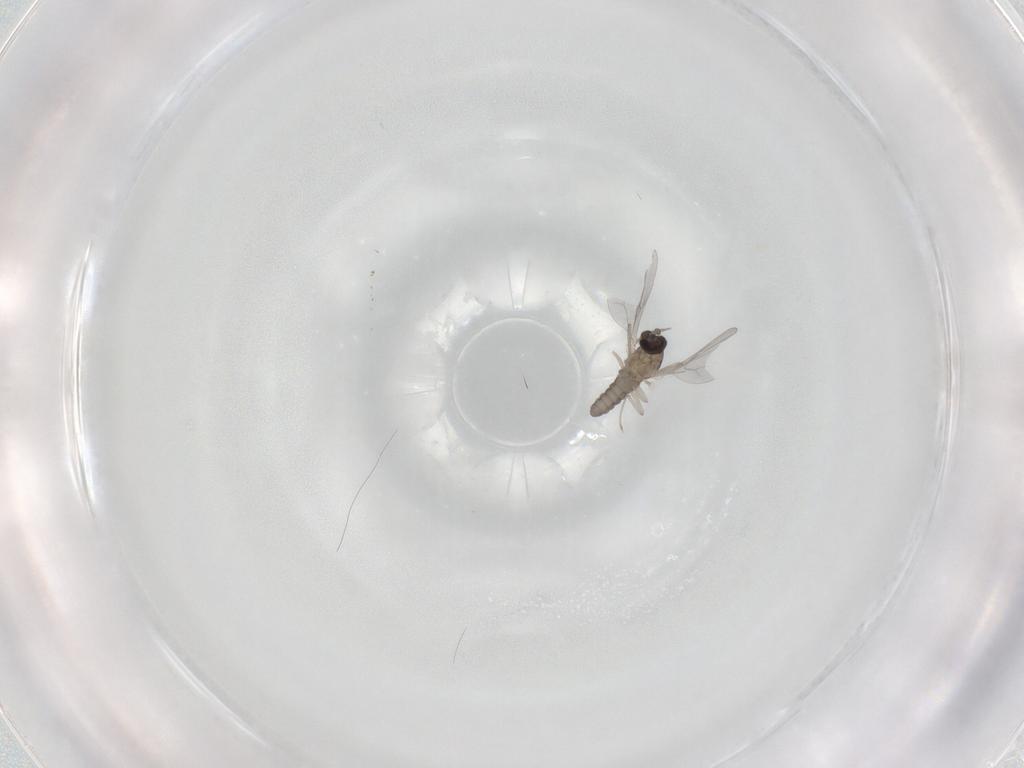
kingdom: Animalia
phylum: Arthropoda
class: Insecta
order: Diptera
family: Cecidomyiidae
